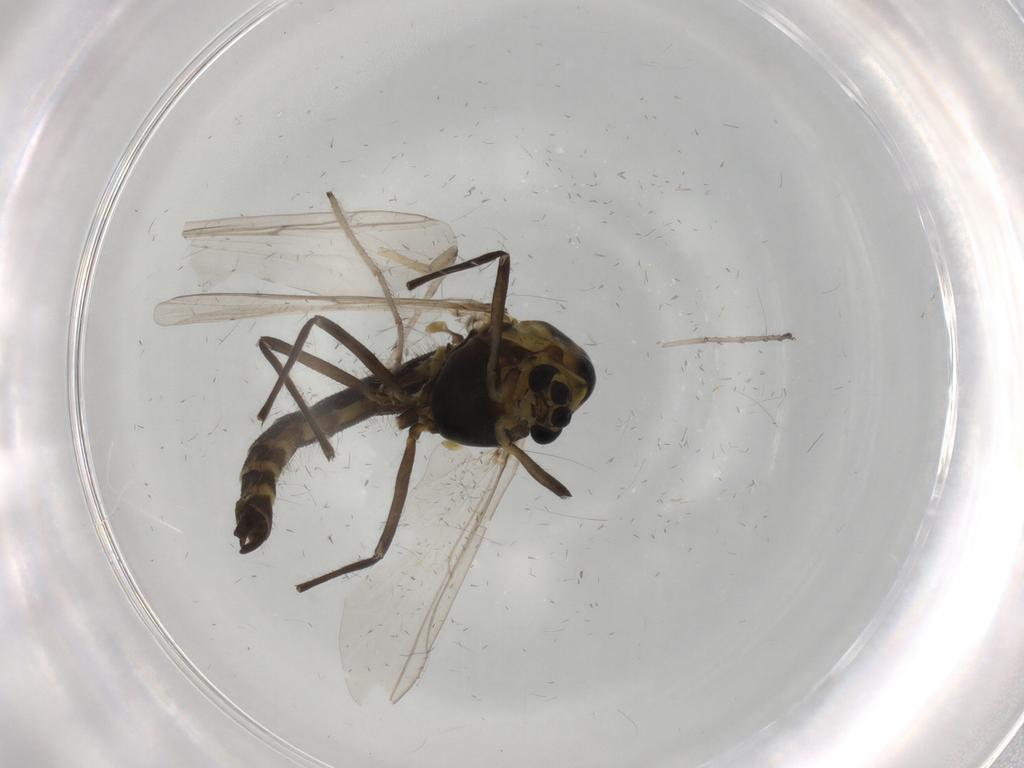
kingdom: Animalia
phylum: Arthropoda
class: Insecta
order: Diptera
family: Simuliidae
